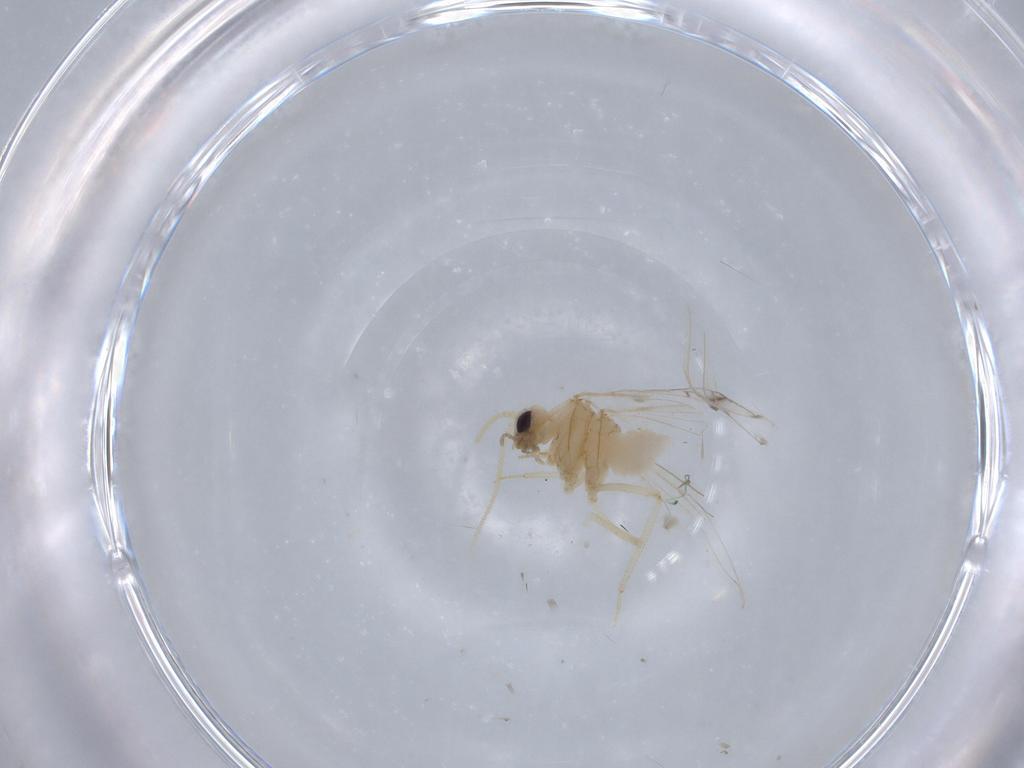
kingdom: Animalia
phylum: Arthropoda
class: Insecta
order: Neuroptera
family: Coniopterygidae
